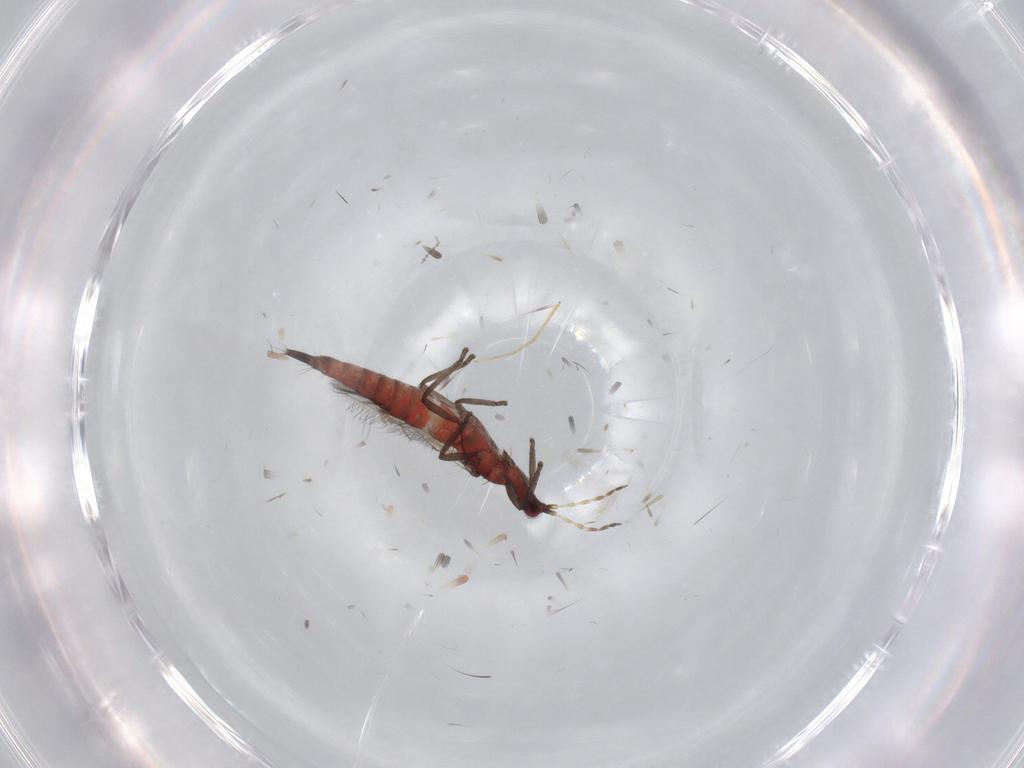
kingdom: Animalia
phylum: Arthropoda
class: Insecta
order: Thysanoptera
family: Phlaeothripidae
